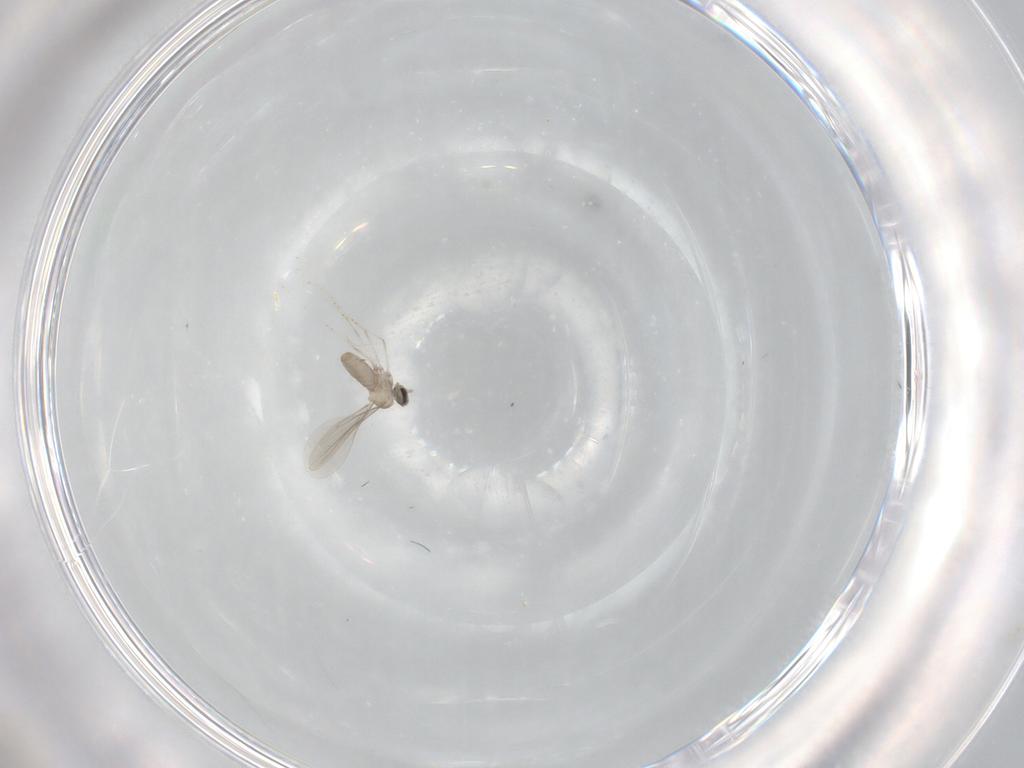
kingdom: Animalia
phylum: Arthropoda
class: Insecta
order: Diptera
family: Cecidomyiidae
